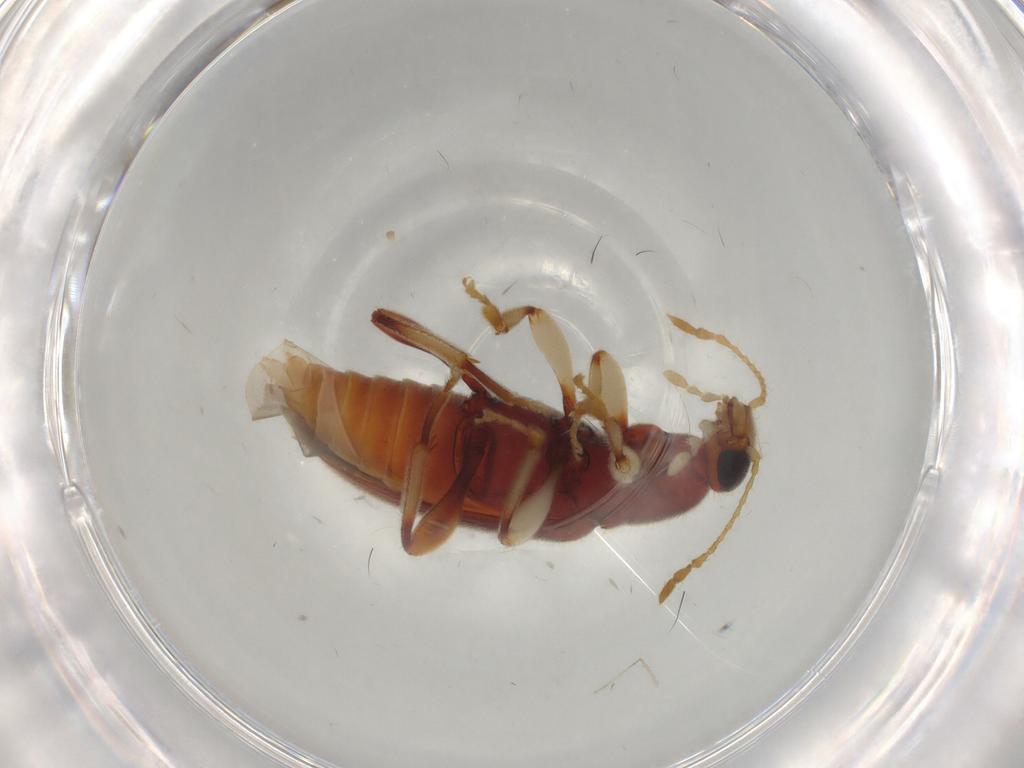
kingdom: Animalia
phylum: Arthropoda
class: Insecta
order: Coleoptera
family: Anthicidae
